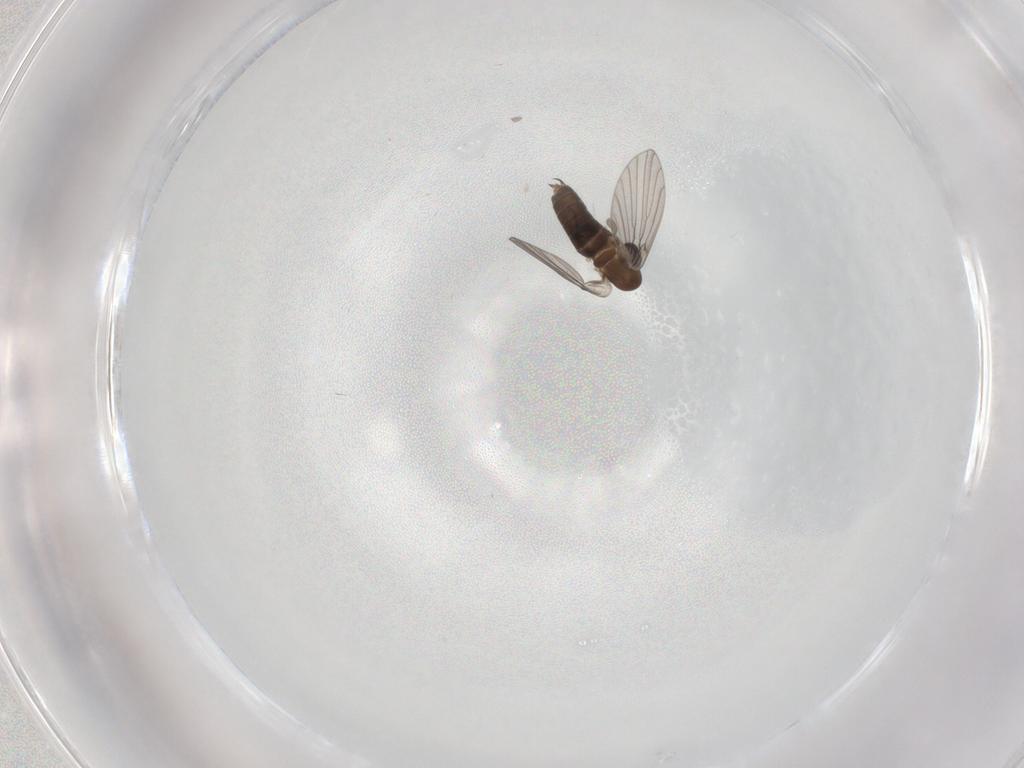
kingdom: Animalia
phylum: Arthropoda
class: Insecta
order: Diptera
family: Chironomidae
